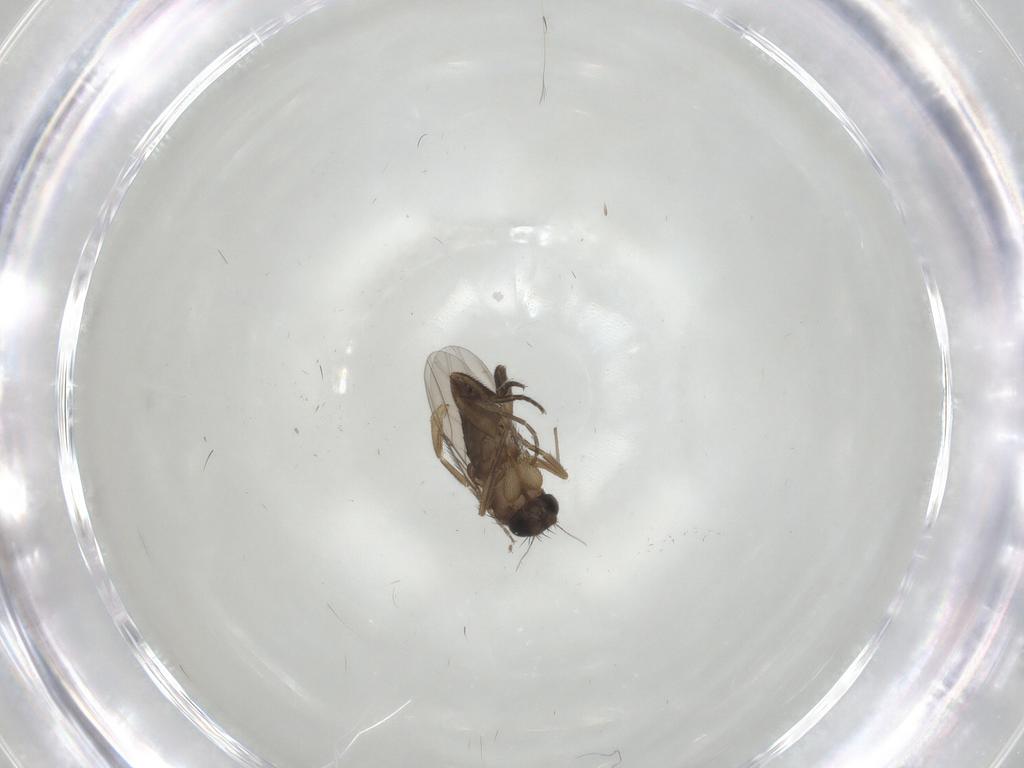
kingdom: Animalia
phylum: Arthropoda
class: Insecta
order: Diptera
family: Phoridae
